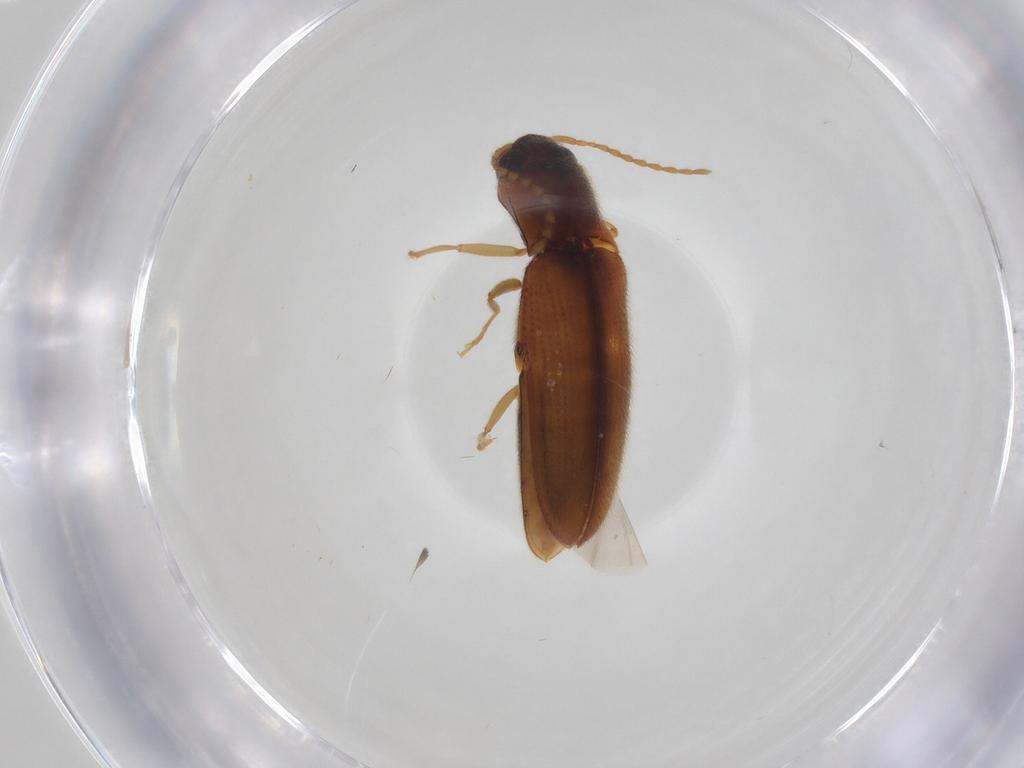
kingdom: Animalia
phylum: Arthropoda
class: Insecta
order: Coleoptera
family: Elateridae
